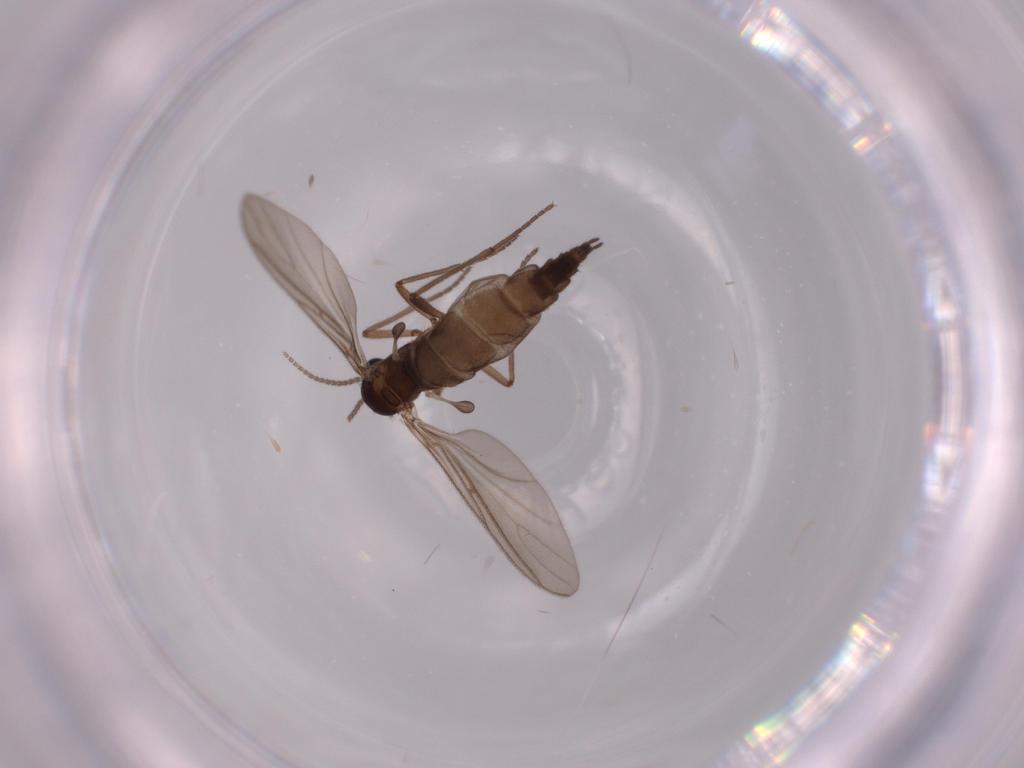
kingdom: Animalia
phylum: Arthropoda
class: Insecta
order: Diptera
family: Sciaridae
